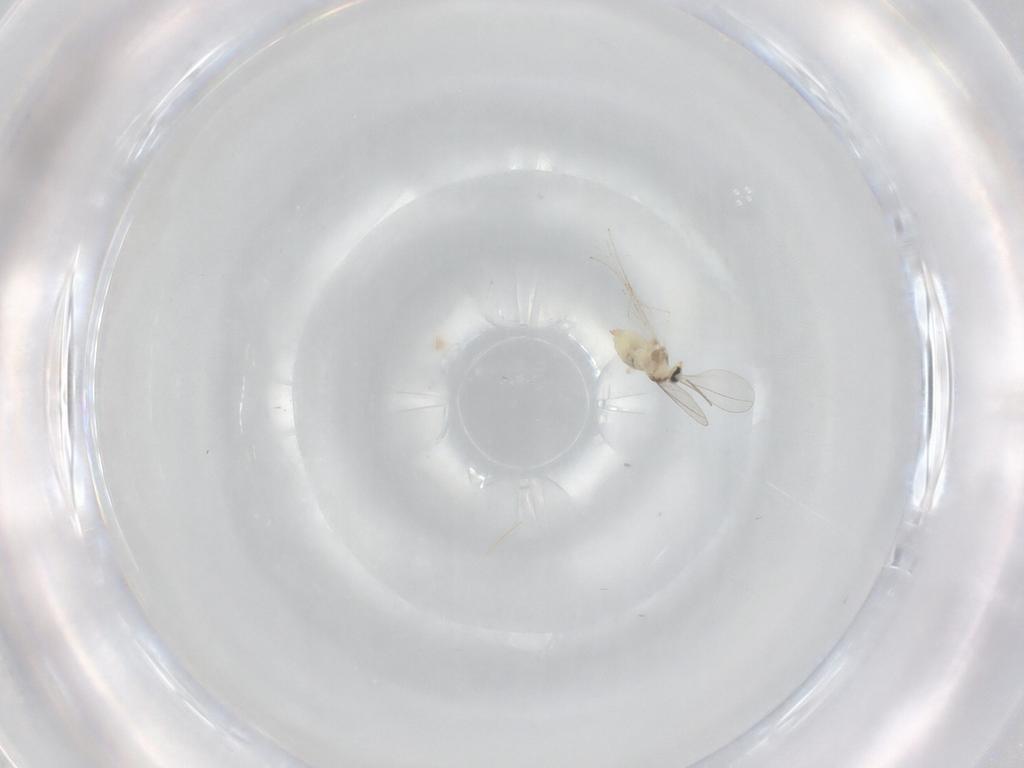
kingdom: Animalia
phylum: Arthropoda
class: Insecta
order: Diptera
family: Cecidomyiidae
